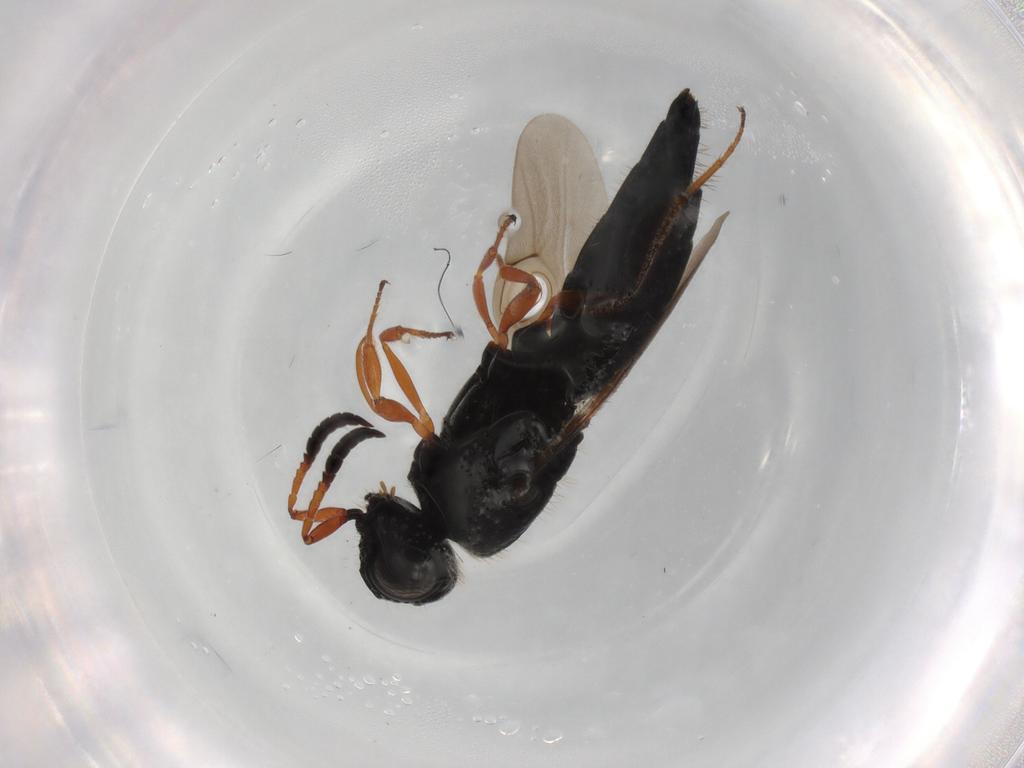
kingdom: Animalia
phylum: Arthropoda
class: Insecta
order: Hymenoptera
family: Scelionidae
